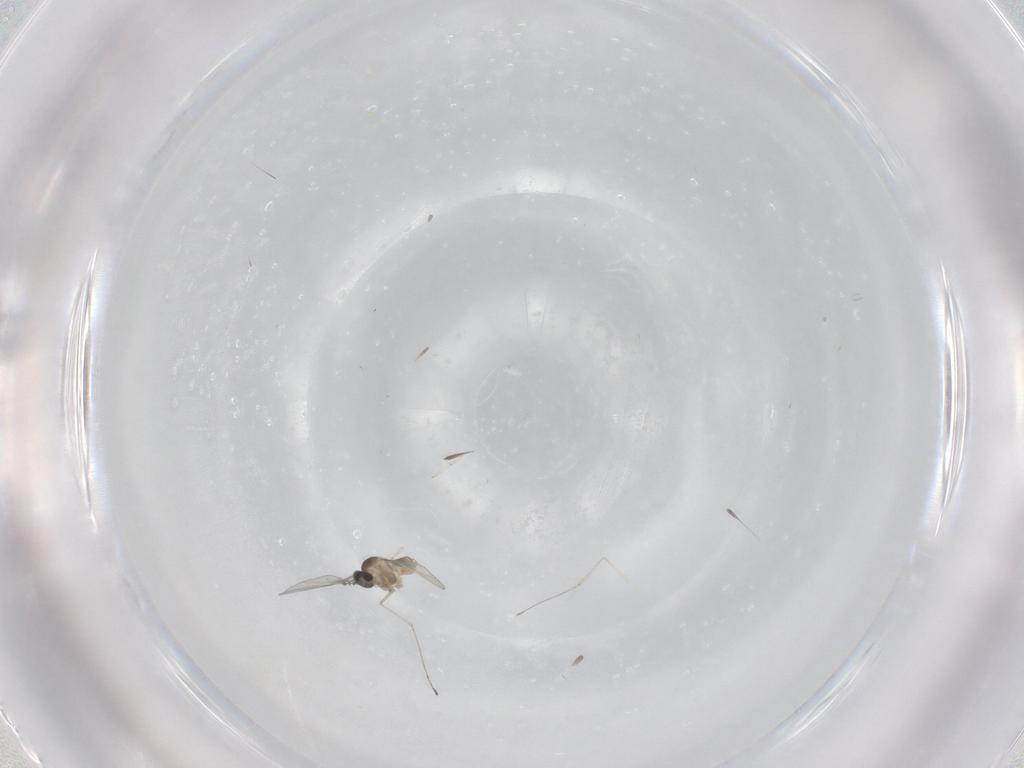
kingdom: Animalia
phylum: Arthropoda
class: Insecta
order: Diptera
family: Cecidomyiidae
